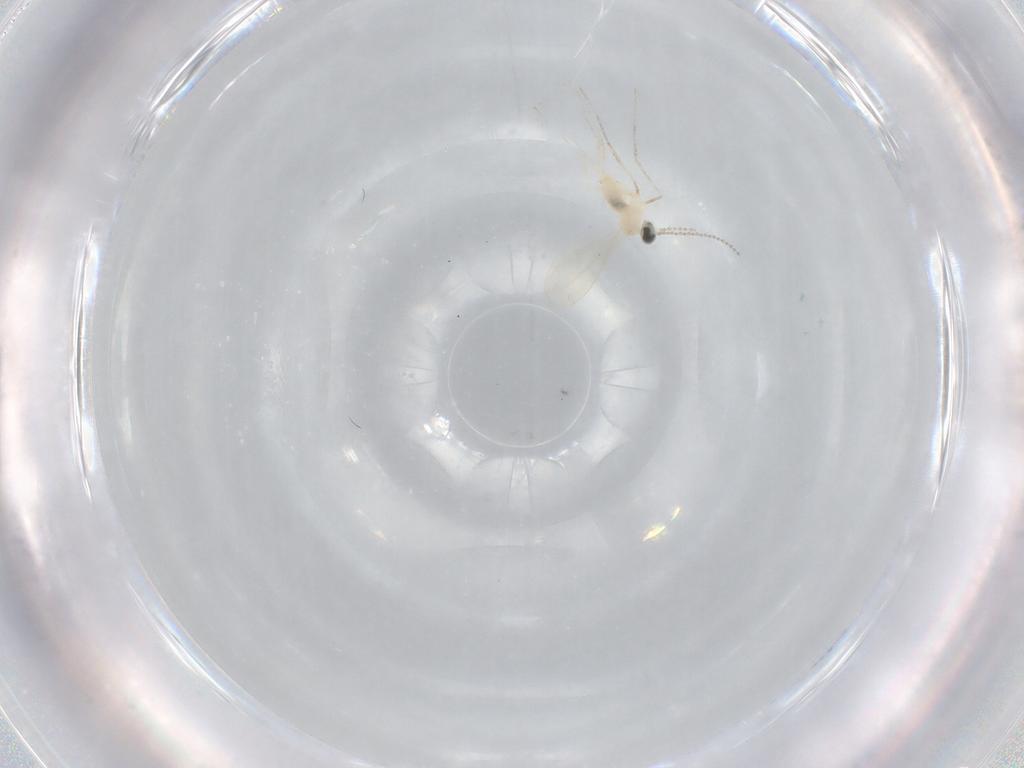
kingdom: Animalia
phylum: Arthropoda
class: Insecta
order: Diptera
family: Cecidomyiidae
